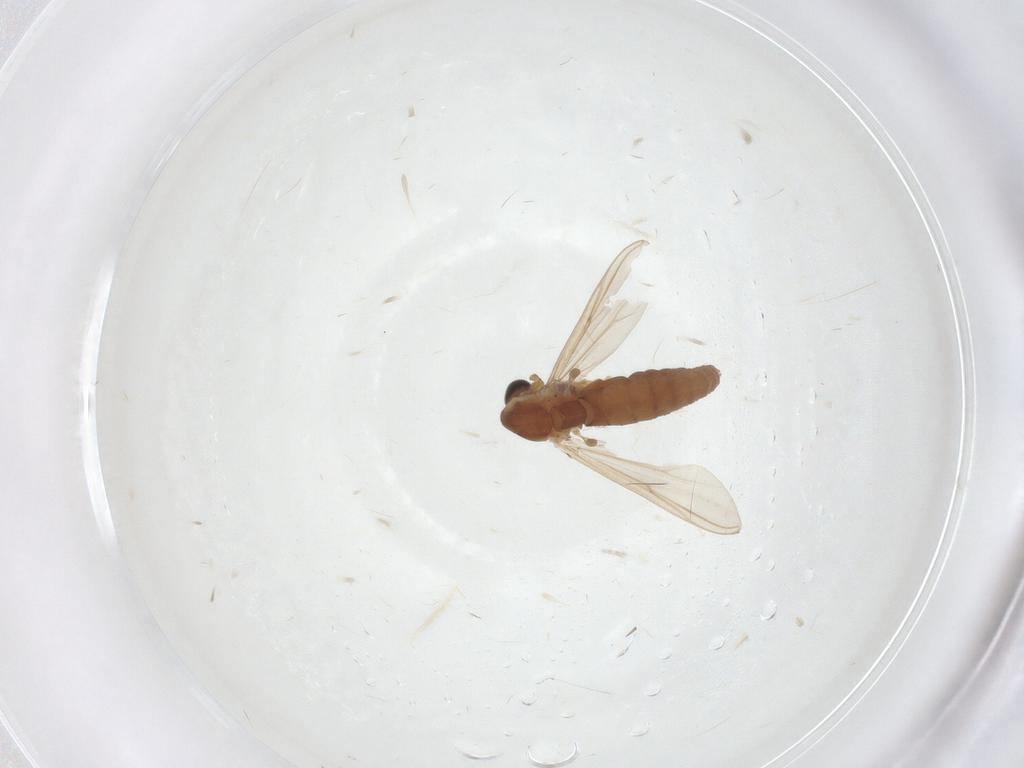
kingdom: Animalia
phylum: Arthropoda
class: Insecta
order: Diptera
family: Chironomidae
